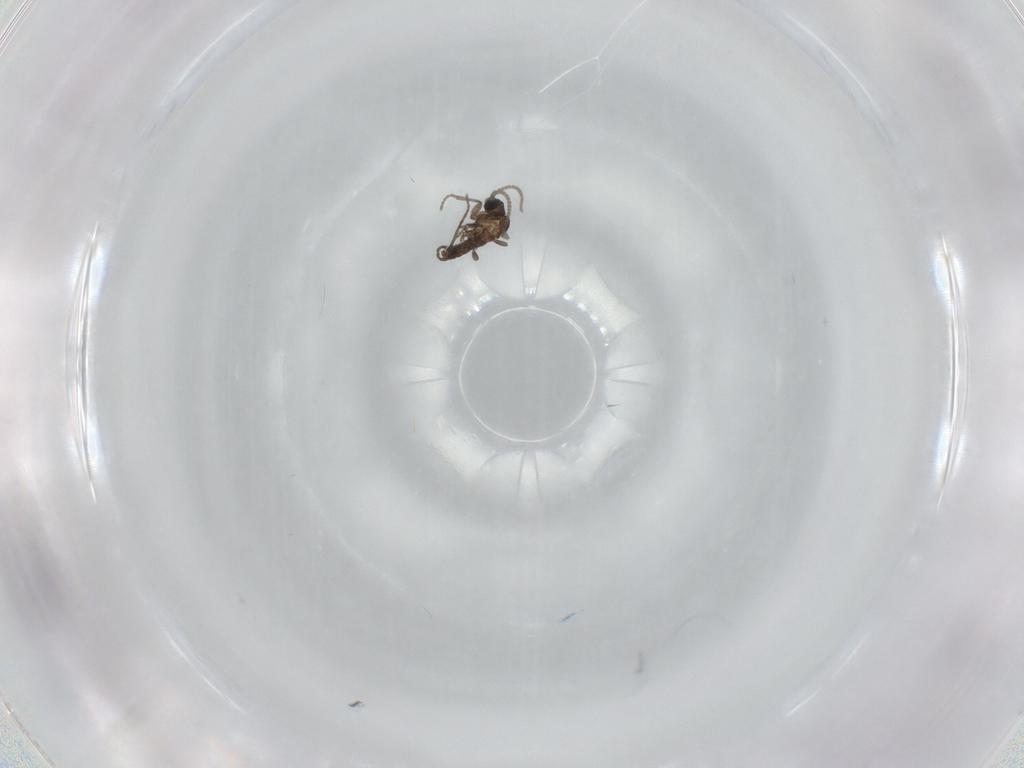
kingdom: Animalia
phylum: Arthropoda
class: Insecta
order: Diptera
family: Ceratopogonidae
